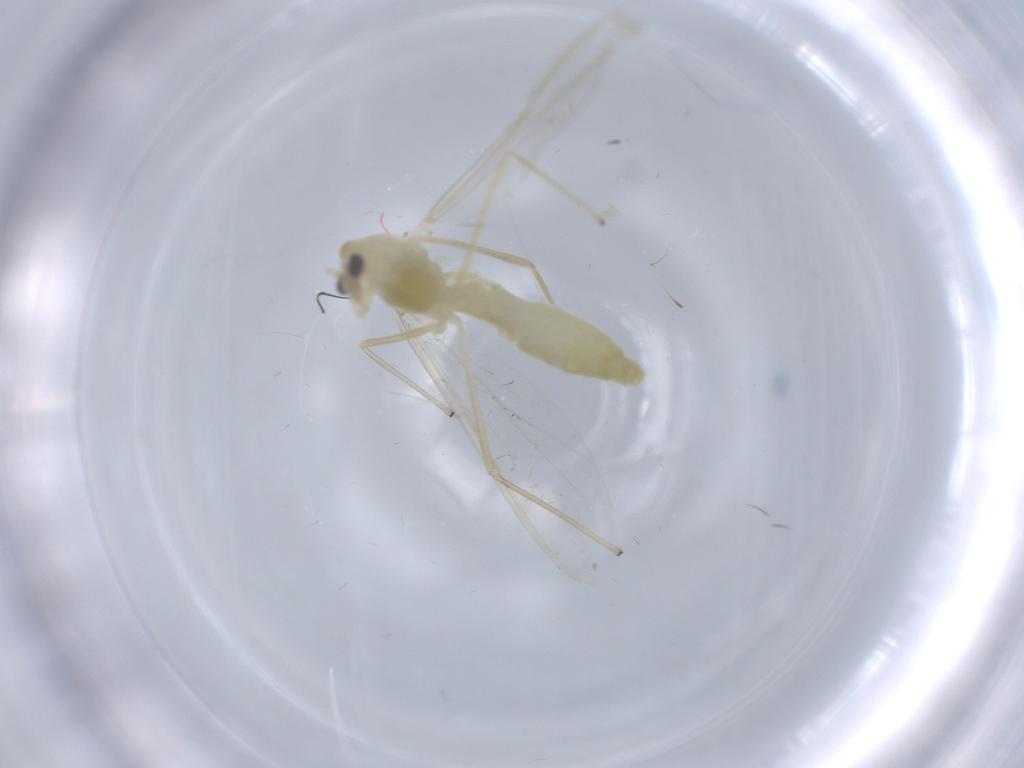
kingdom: Animalia
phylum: Arthropoda
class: Insecta
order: Diptera
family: Chironomidae
